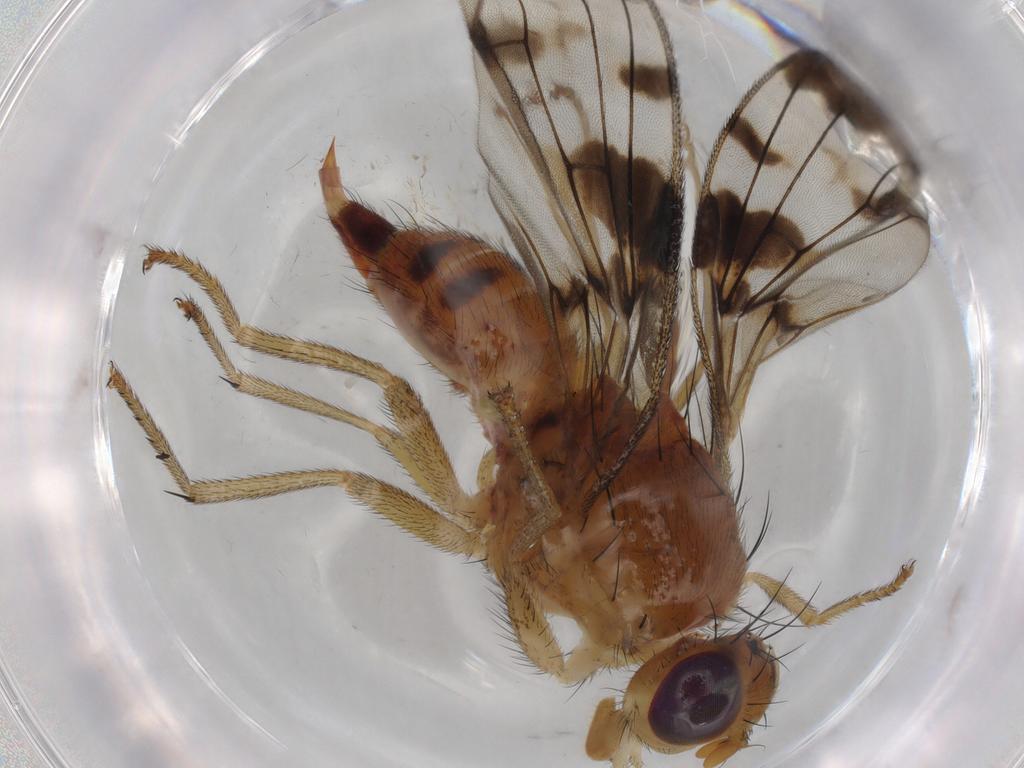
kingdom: Animalia
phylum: Arthropoda
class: Insecta
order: Diptera
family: Tephritidae
